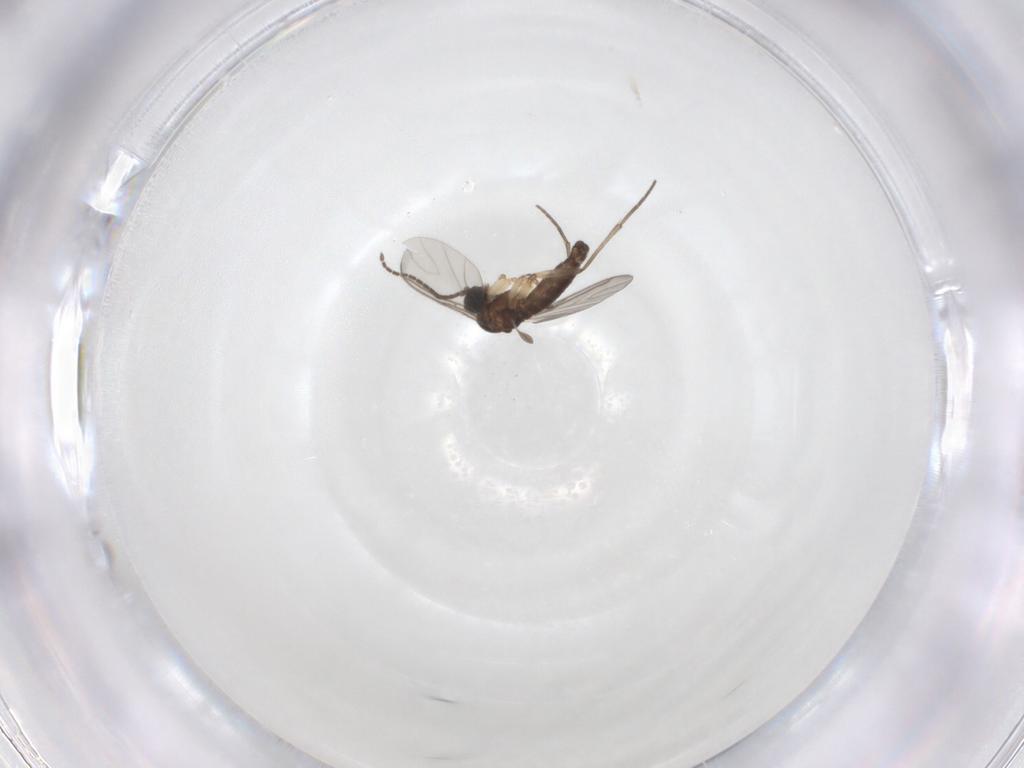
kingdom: Animalia
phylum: Arthropoda
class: Insecta
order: Diptera
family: Sciaridae
